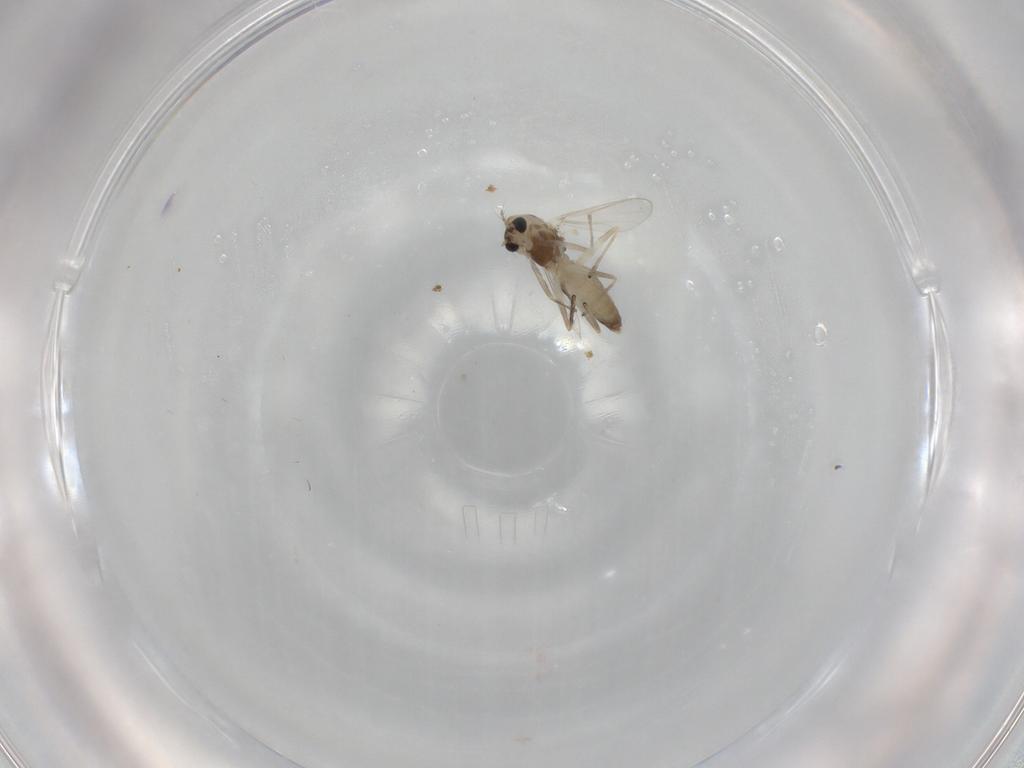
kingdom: Animalia
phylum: Arthropoda
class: Insecta
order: Diptera
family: Chironomidae
